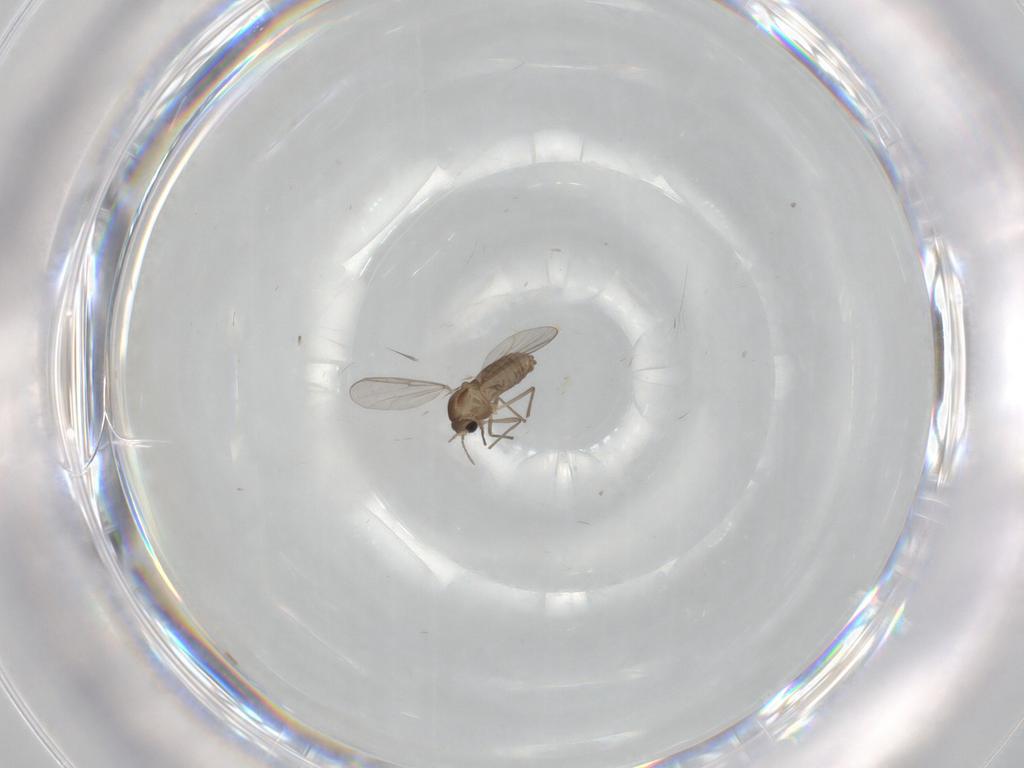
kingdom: Animalia
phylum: Arthropoda
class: Insecta
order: Diptera
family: Chironomidae
